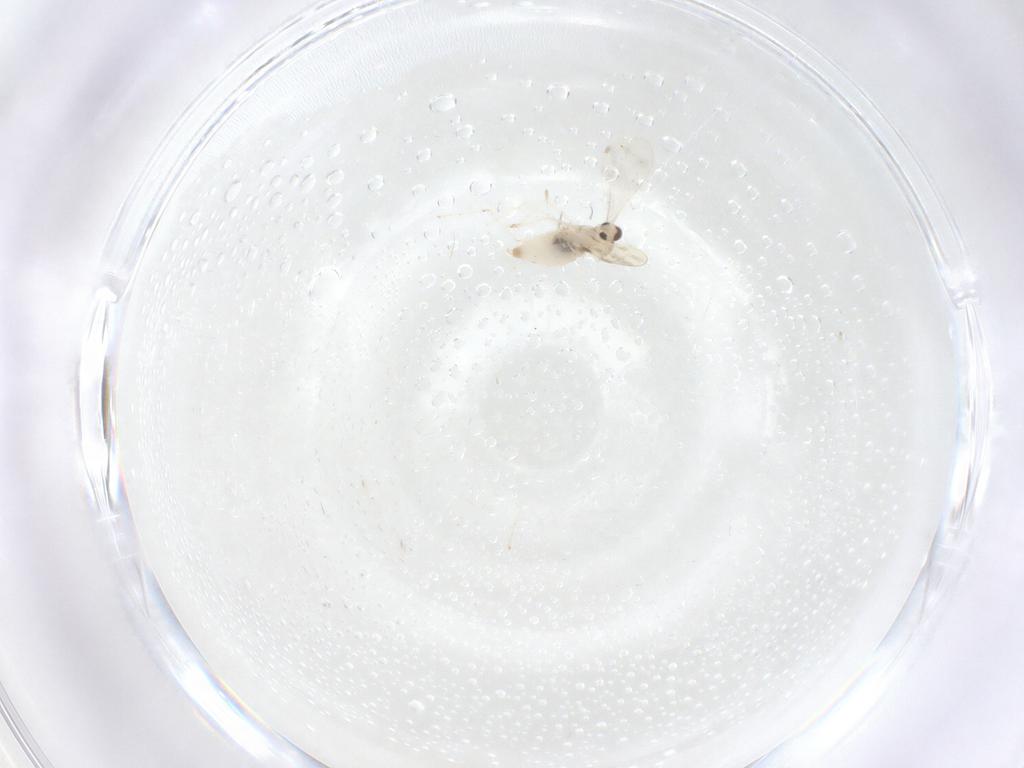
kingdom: Animalia
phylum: Arthropoda
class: Insecta
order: Diptera
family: Cecidomyiidae
